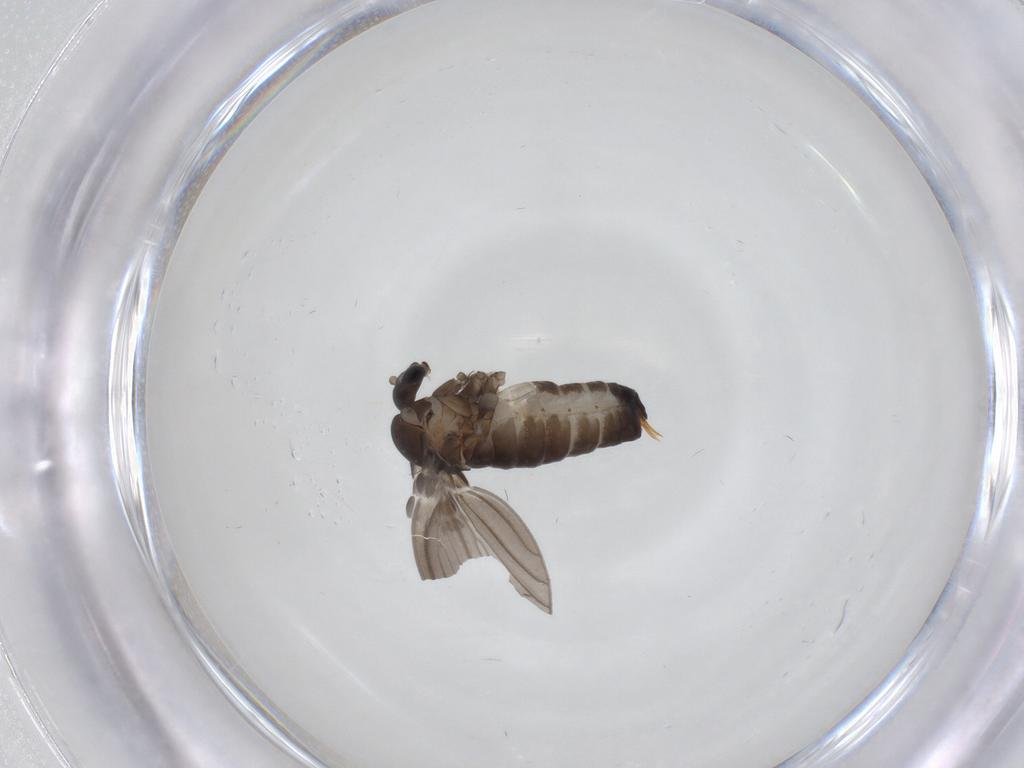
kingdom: Animalia
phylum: Arthropoda
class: Insecta
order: Diptera
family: Psychodidae
